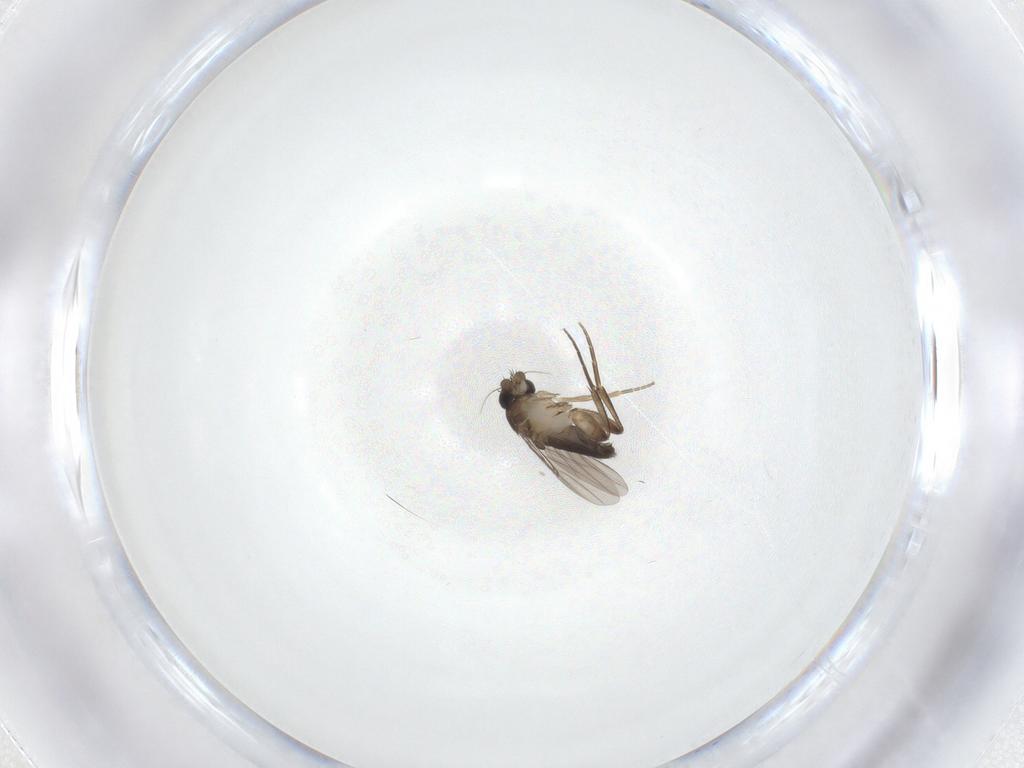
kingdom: Animalia
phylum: Arthropoda
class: Insecta
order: Diptera
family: Phoridae
